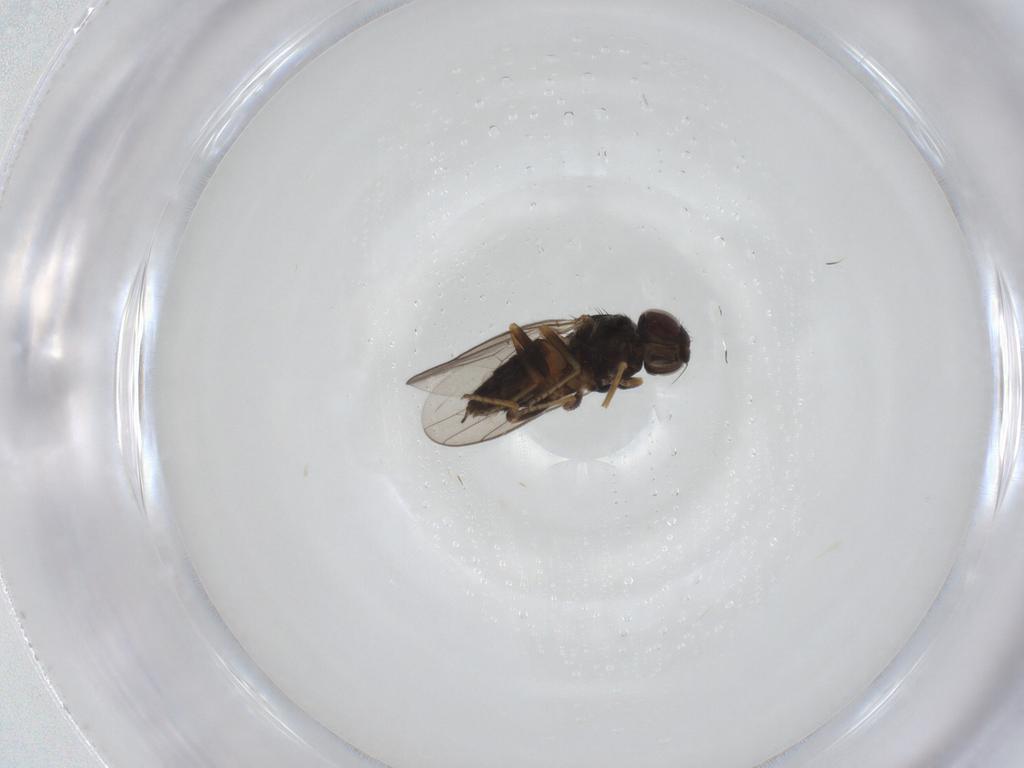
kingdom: Animalia
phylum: Arthropoda
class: Insecta
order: Diptera
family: Chloropidae
